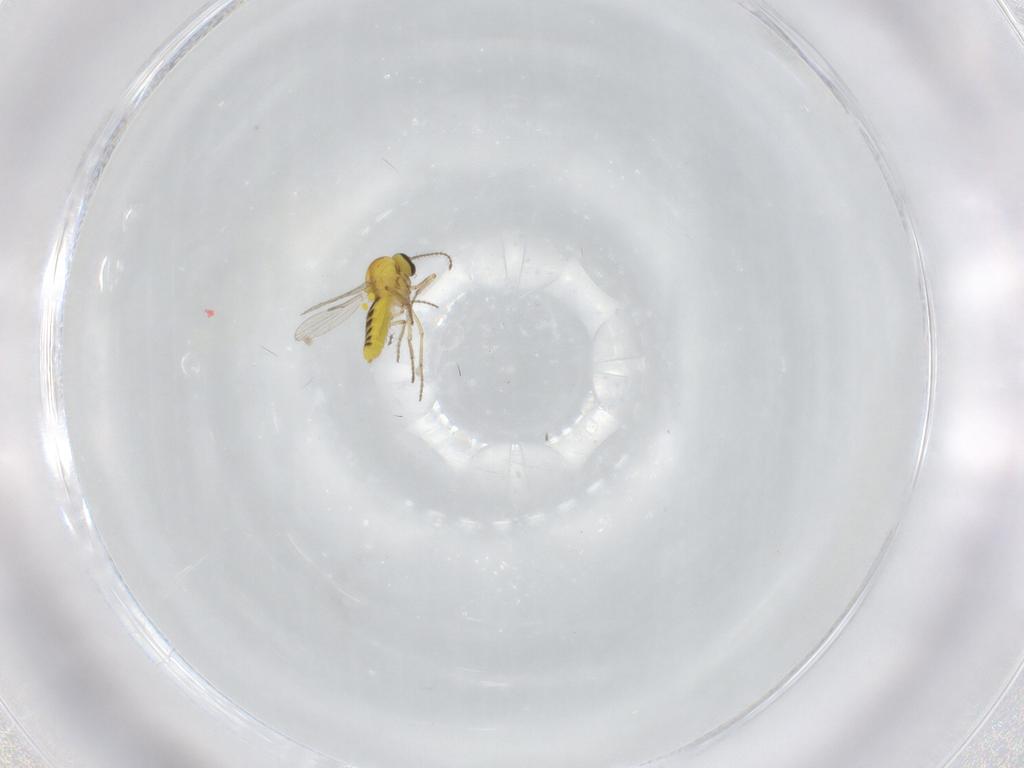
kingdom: Animalia
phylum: Arthropoda
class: Insecta
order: Diptera
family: Ceratopogonidae
